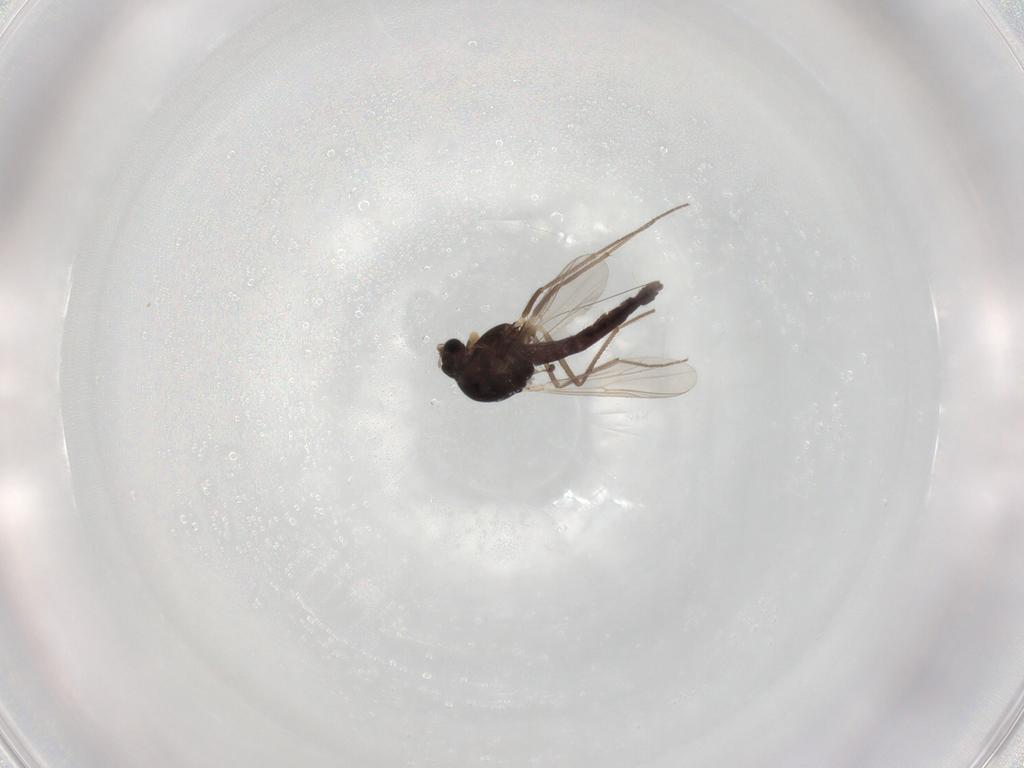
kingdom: Animalia
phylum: Arthropoda
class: Insecta
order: Diptera
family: Chironomidae
